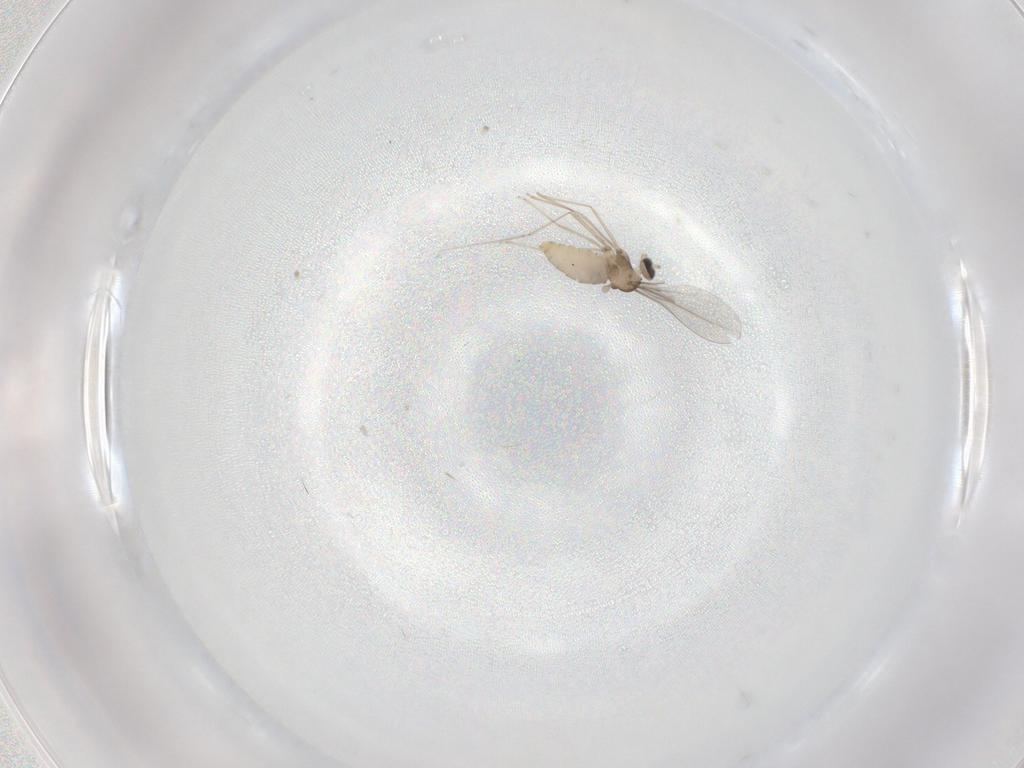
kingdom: Animalia
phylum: Arthropoda
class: Insecta
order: Diptera
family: Cecidomyiidae
